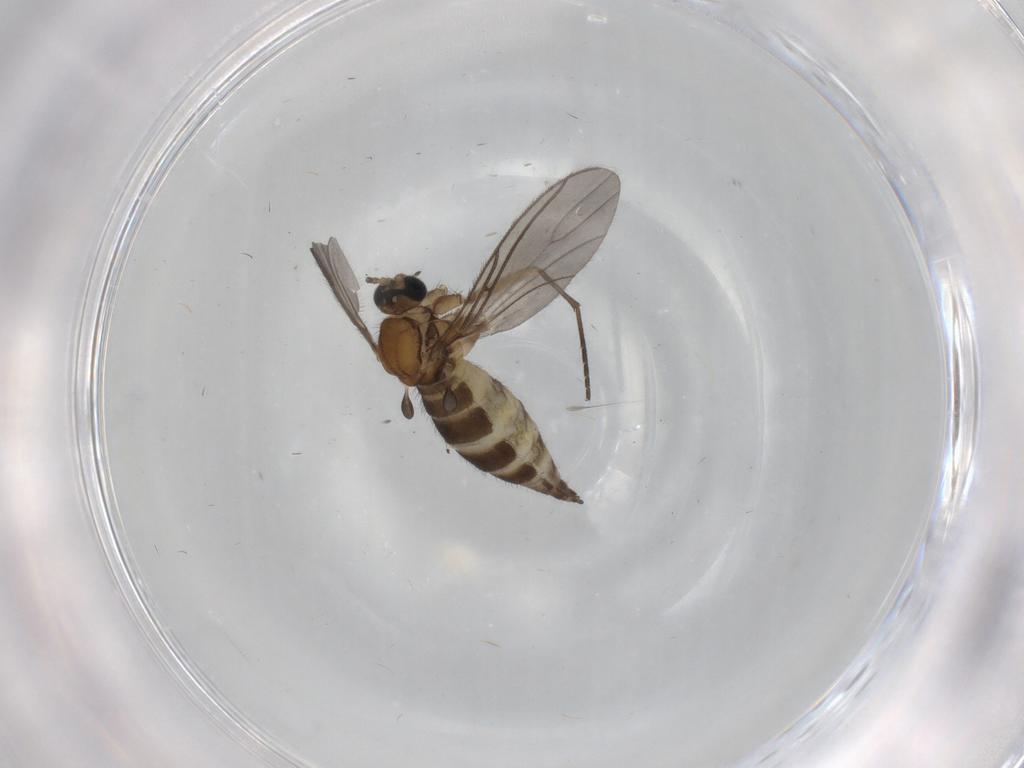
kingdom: Animalia
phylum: Arthropoda
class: Insecta
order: Diptera
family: Sciaridae
